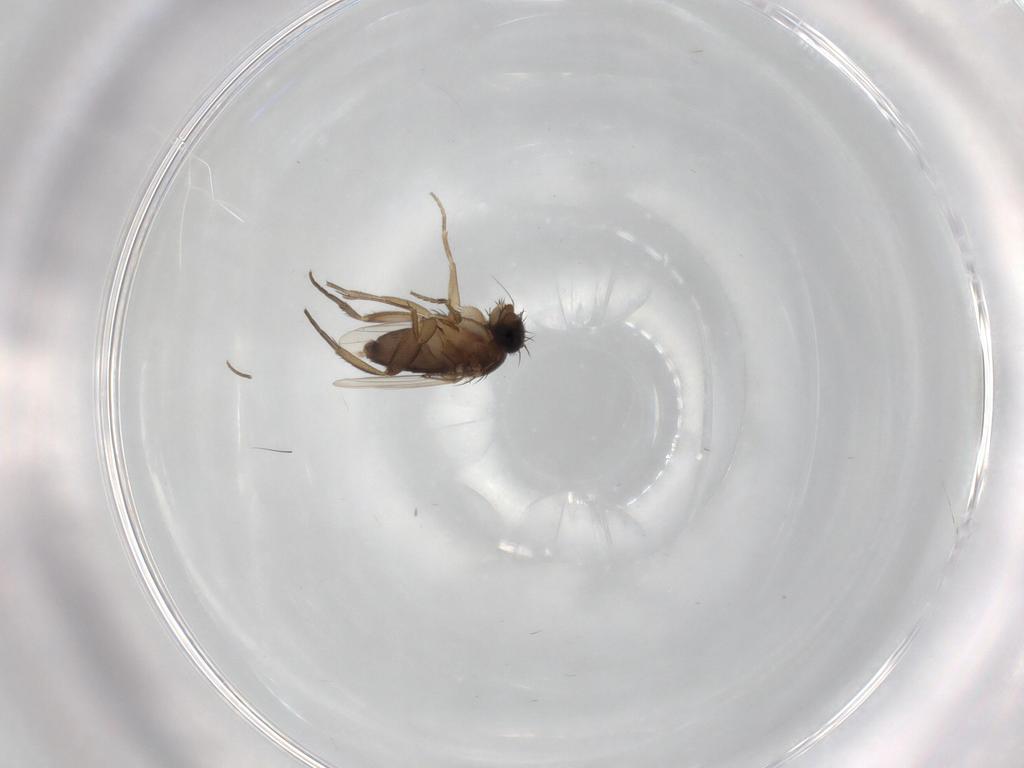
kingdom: Animalia
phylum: Arthropoda
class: Insecta
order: Diptera
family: Phoridae
